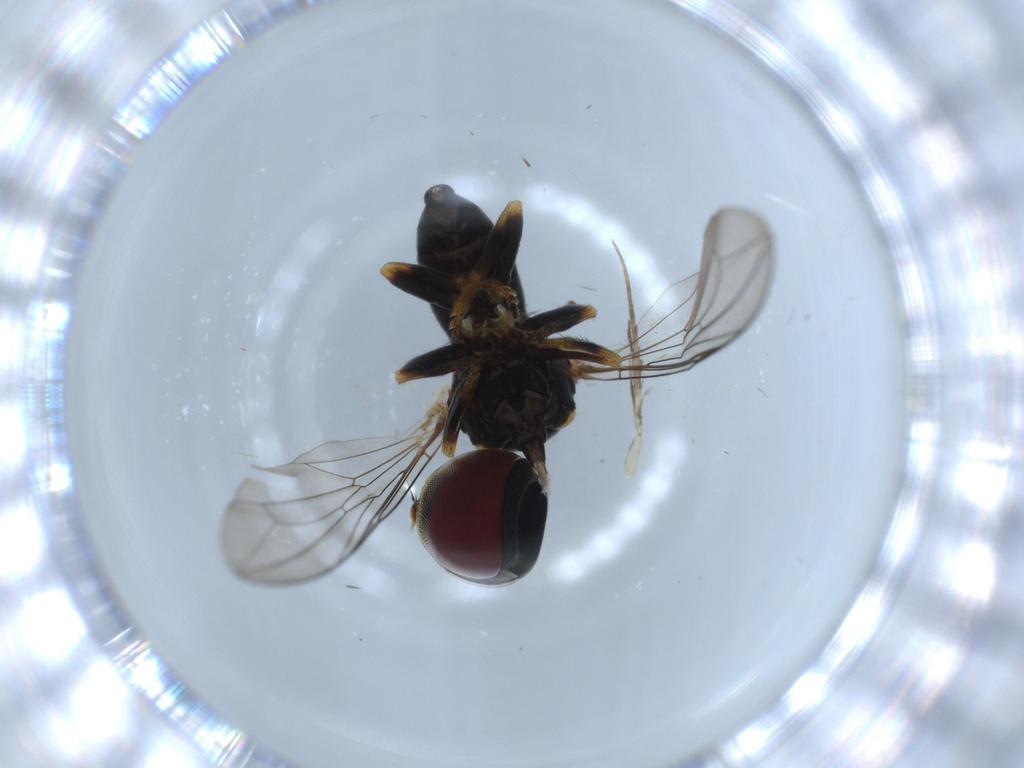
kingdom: Animalia
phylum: Arthropoda
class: Insecta
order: Diptera
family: Pipunculidae
